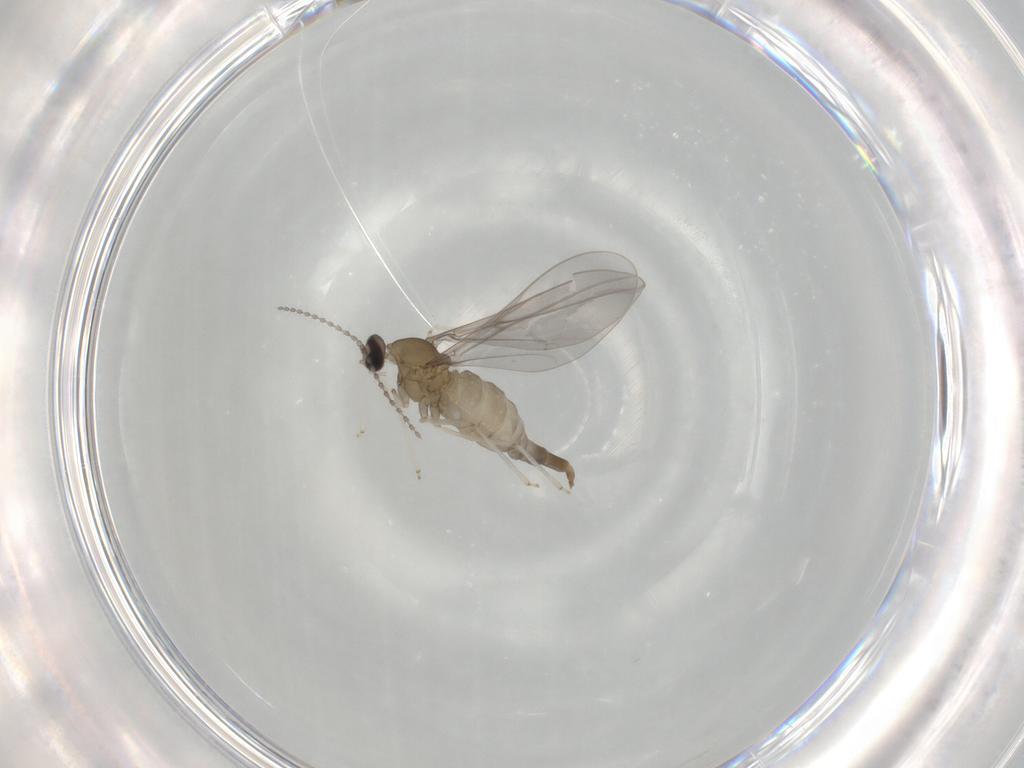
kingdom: Animalia
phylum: Arthropoda
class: Insecta
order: Diptera
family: Cecidomyiidae
